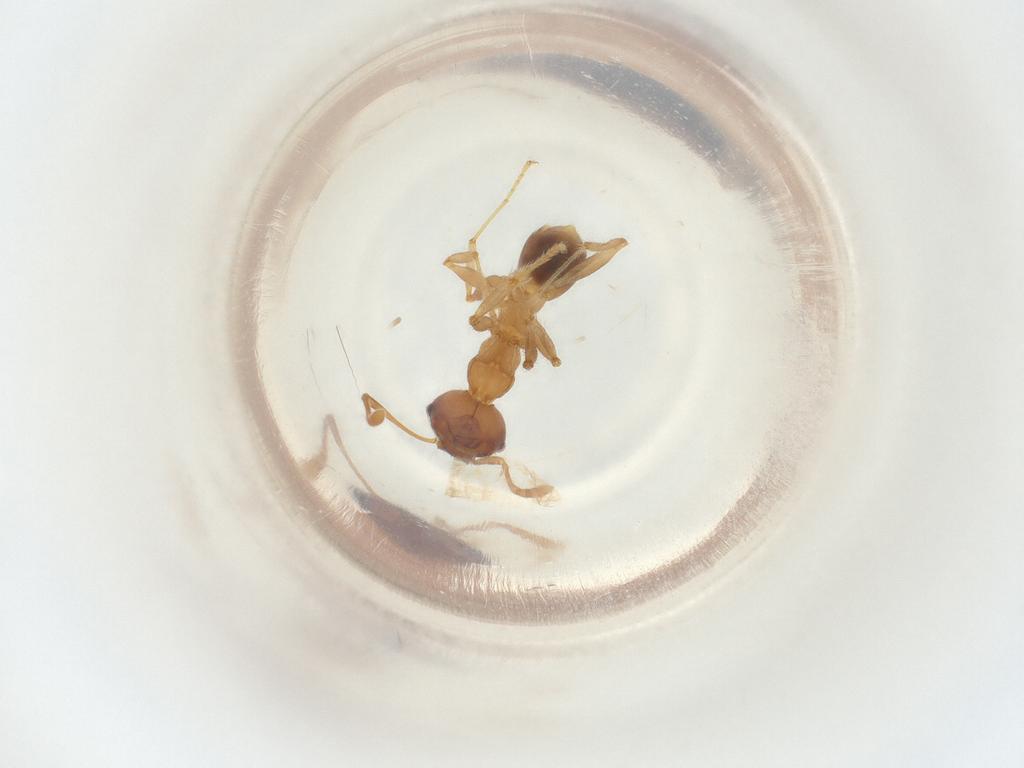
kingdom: Animalia
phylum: Arthropoda
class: Insecta
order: Hymenoptera
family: Formicidae
